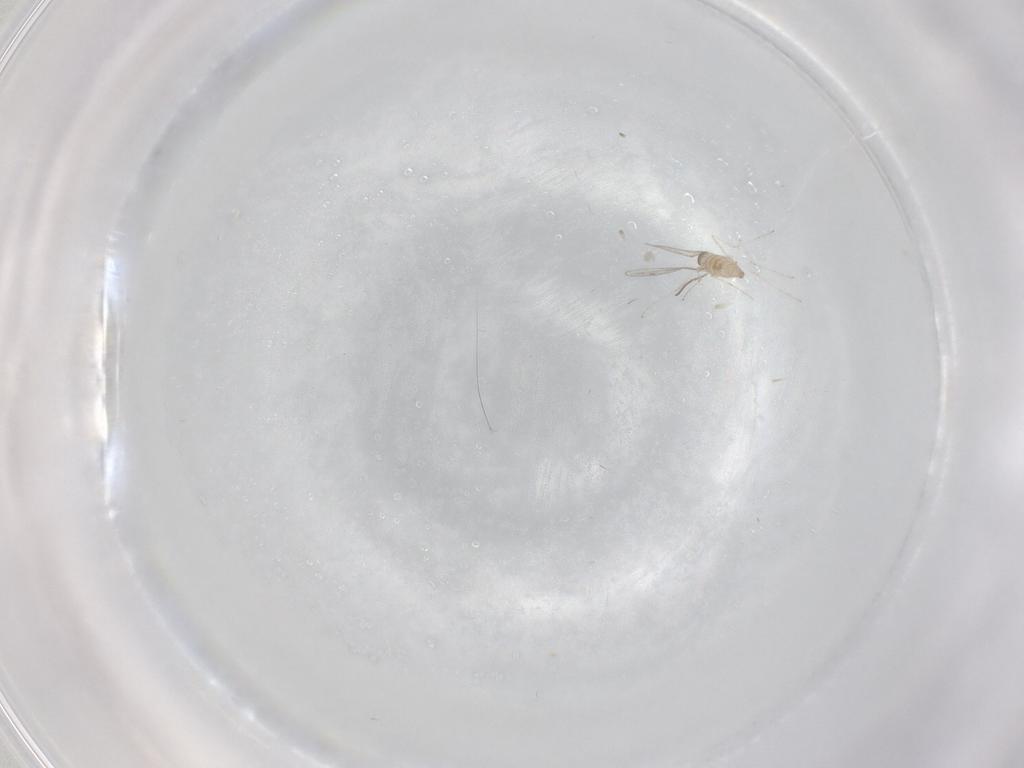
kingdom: Animalia
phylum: Arthropoda
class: Insecta
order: Diptera
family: Cecidomyiidae
